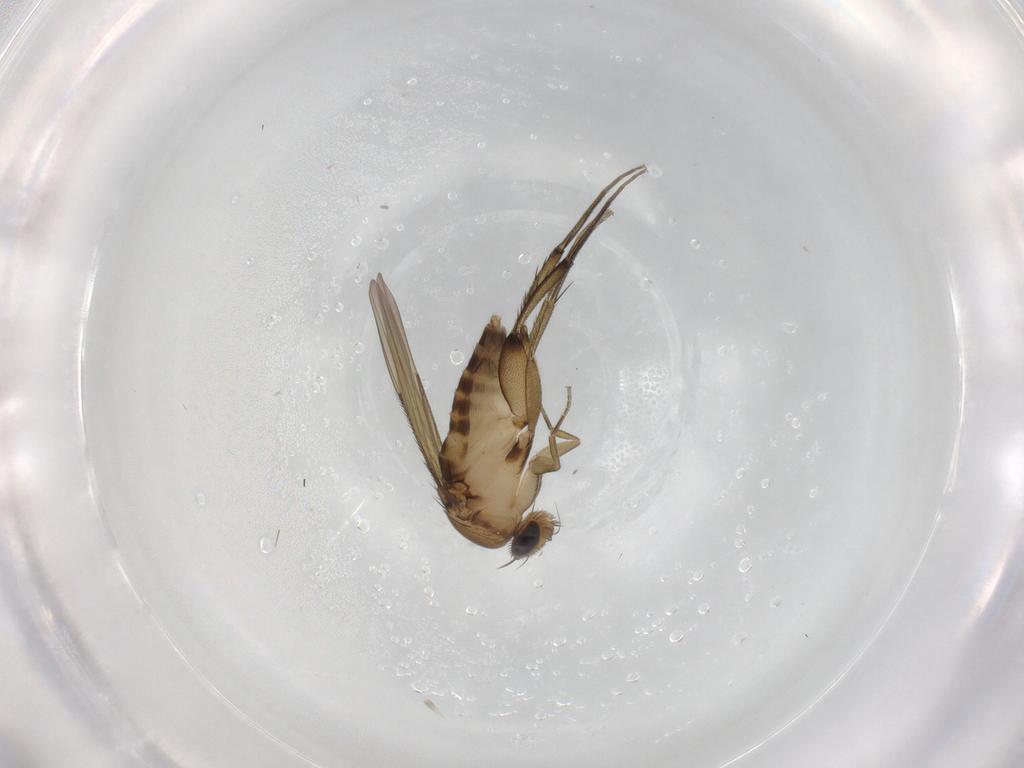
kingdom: Animalia
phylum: Arthropoda
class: Insecta
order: Diptera
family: Phoridae
